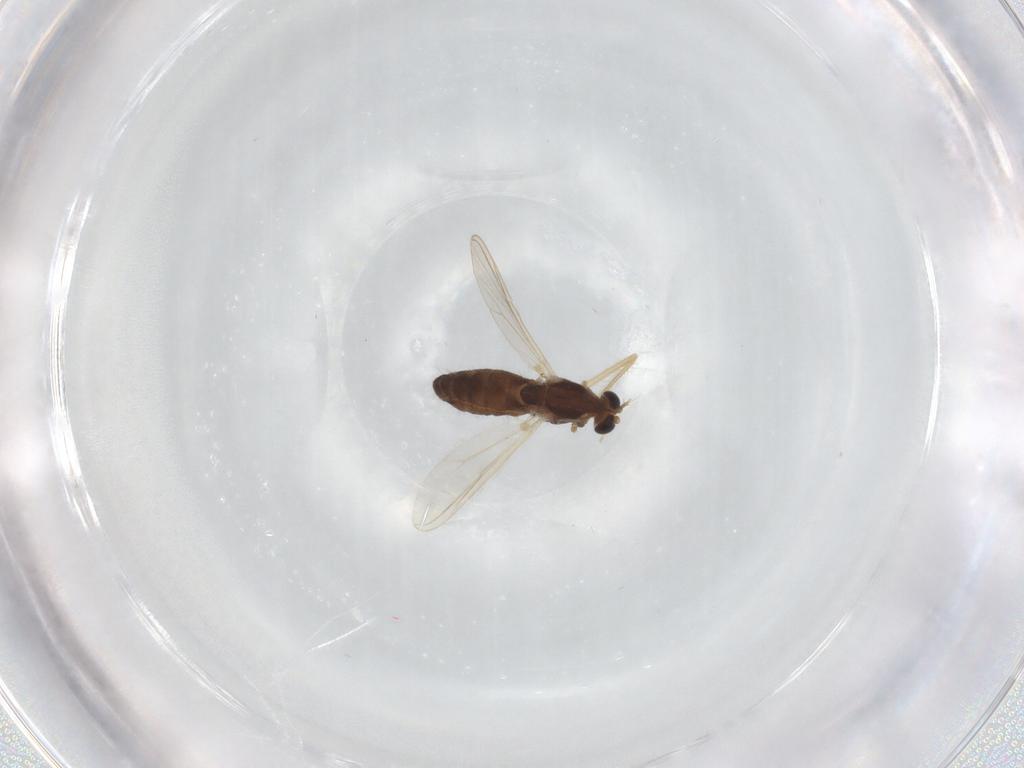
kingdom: Animalia
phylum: Arthropoda
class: Insecta
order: Diptera
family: Chironomidae
